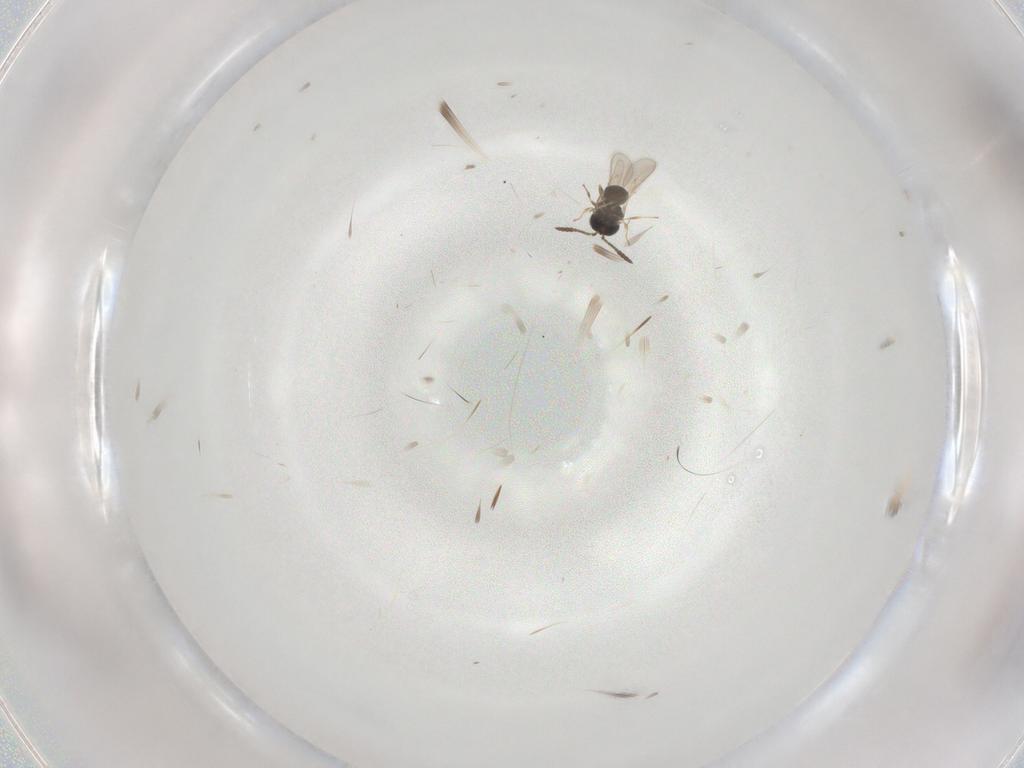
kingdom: Animalia
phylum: Arthropoda
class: Insecta
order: Hymenoptera
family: Scelionidae
